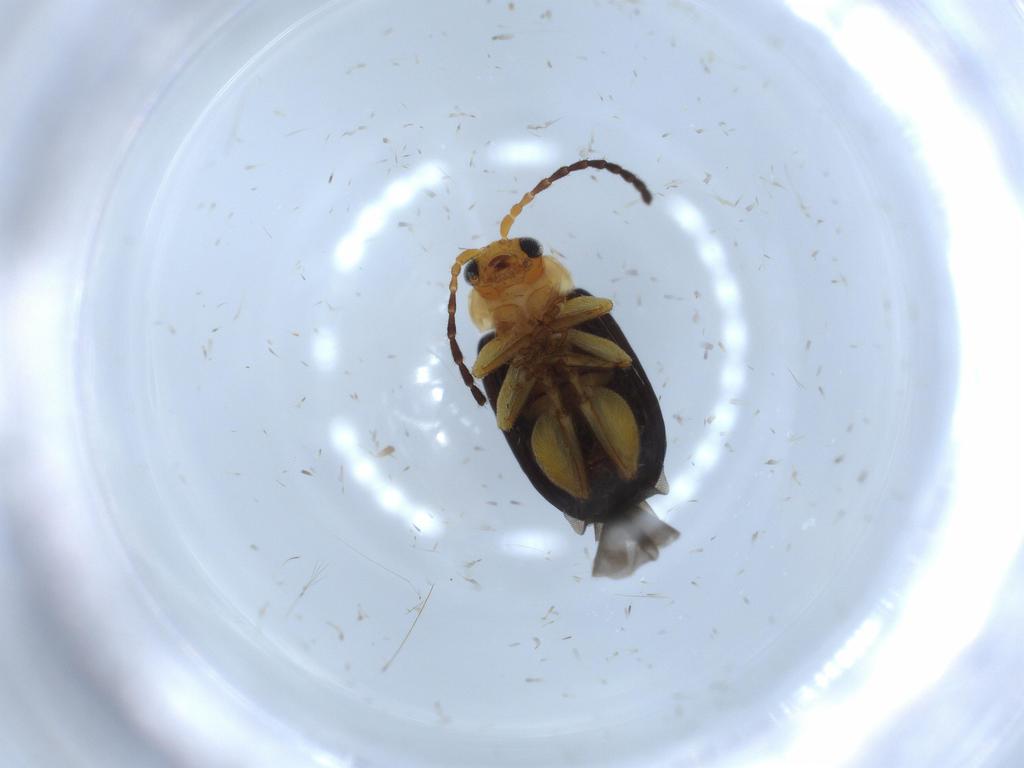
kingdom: Animalia
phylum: Arthropoda
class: Insecta
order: Coleoptera
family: Chrysomelidae
